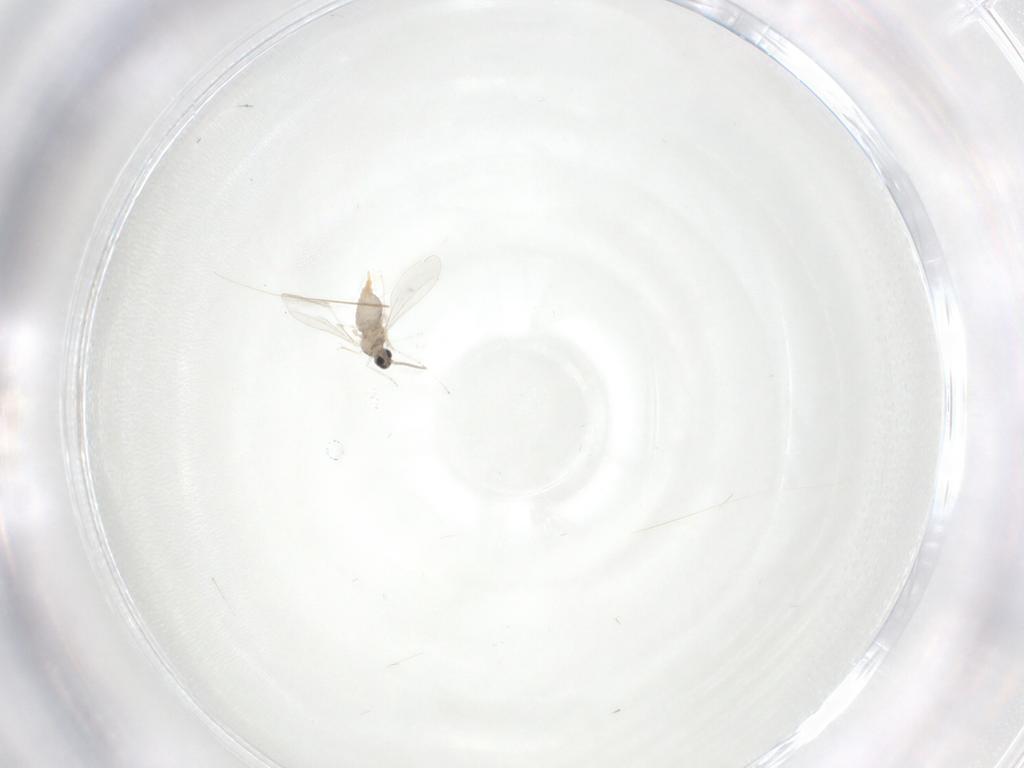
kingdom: Animalia
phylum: Arthropoda
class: Insecta
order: Diptera
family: Cecidomyiidae
